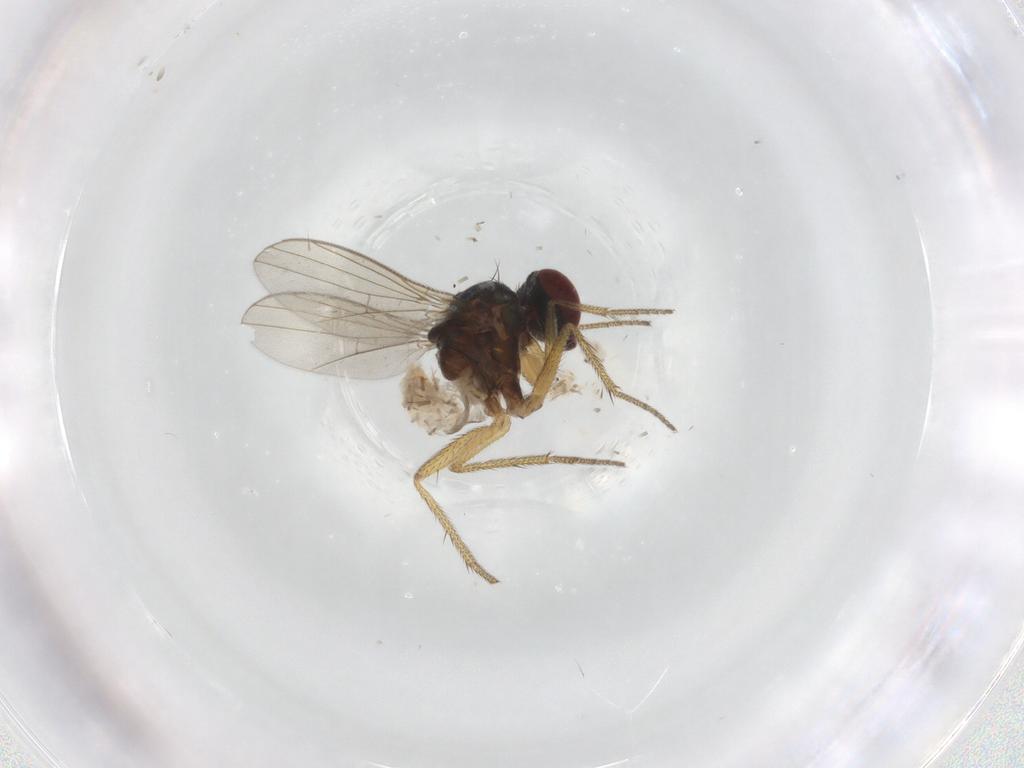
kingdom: Animalia
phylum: Arthropoda
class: Insecta
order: Diptera
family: Micropezidae
